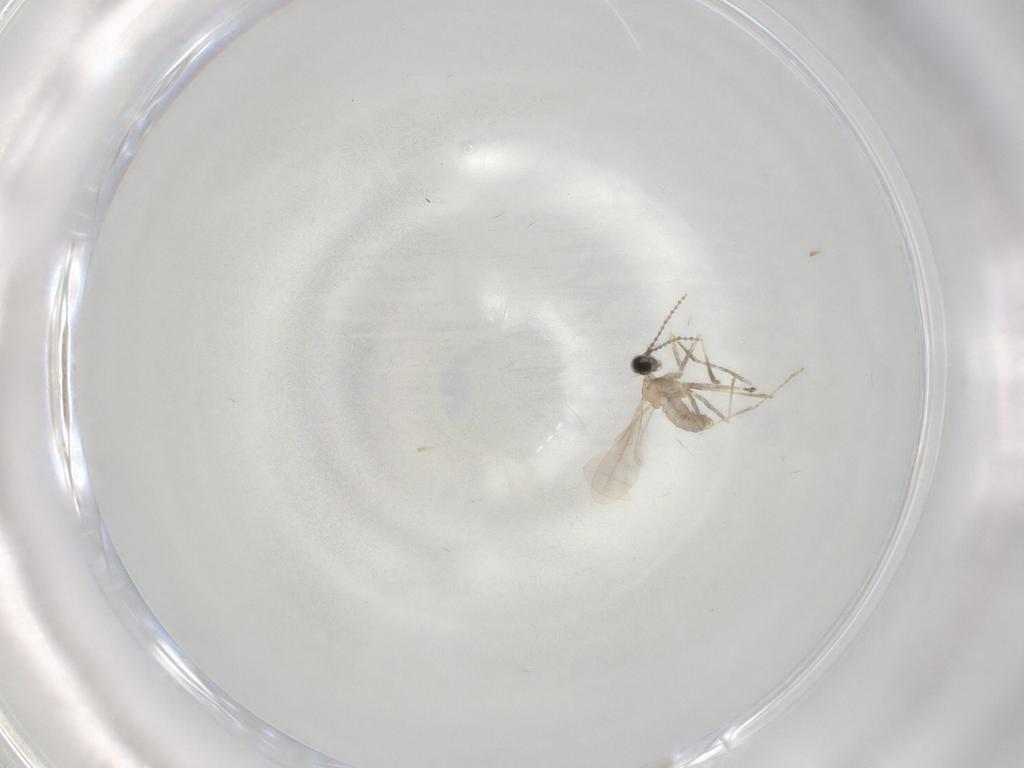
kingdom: Animalia
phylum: Arthropoda
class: Insecta
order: Diptera
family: Cecidomyiidae
